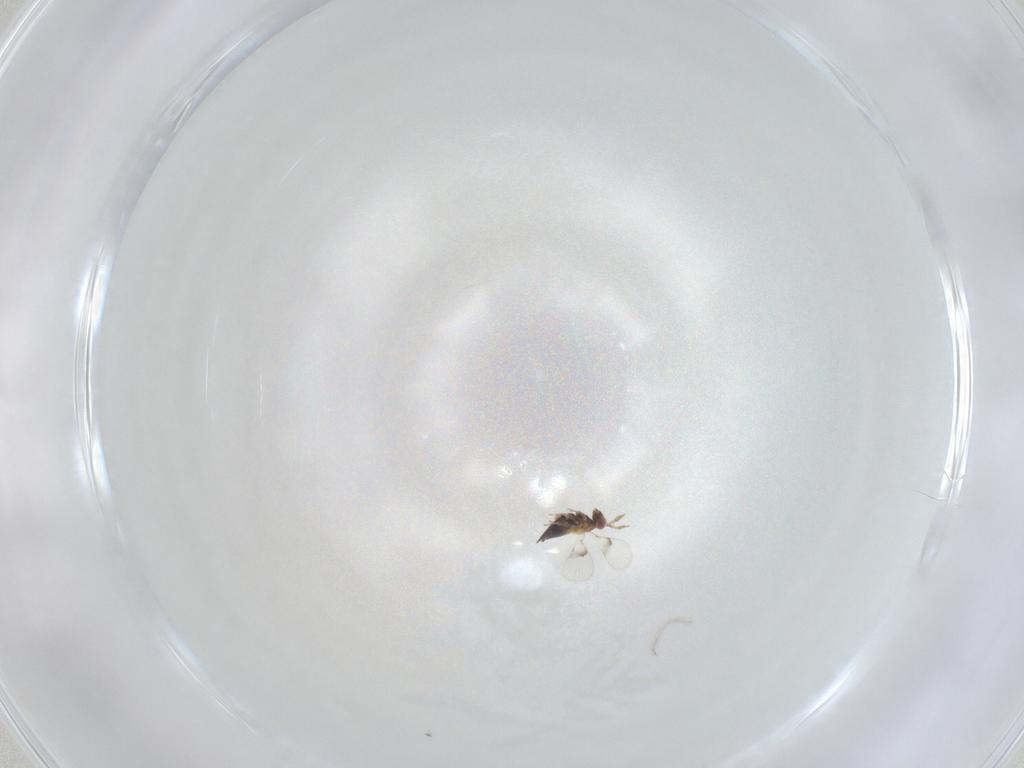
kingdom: Animalia
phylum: Arthropoda
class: Insecta
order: Hymenoptera
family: Trichogrammatidae
